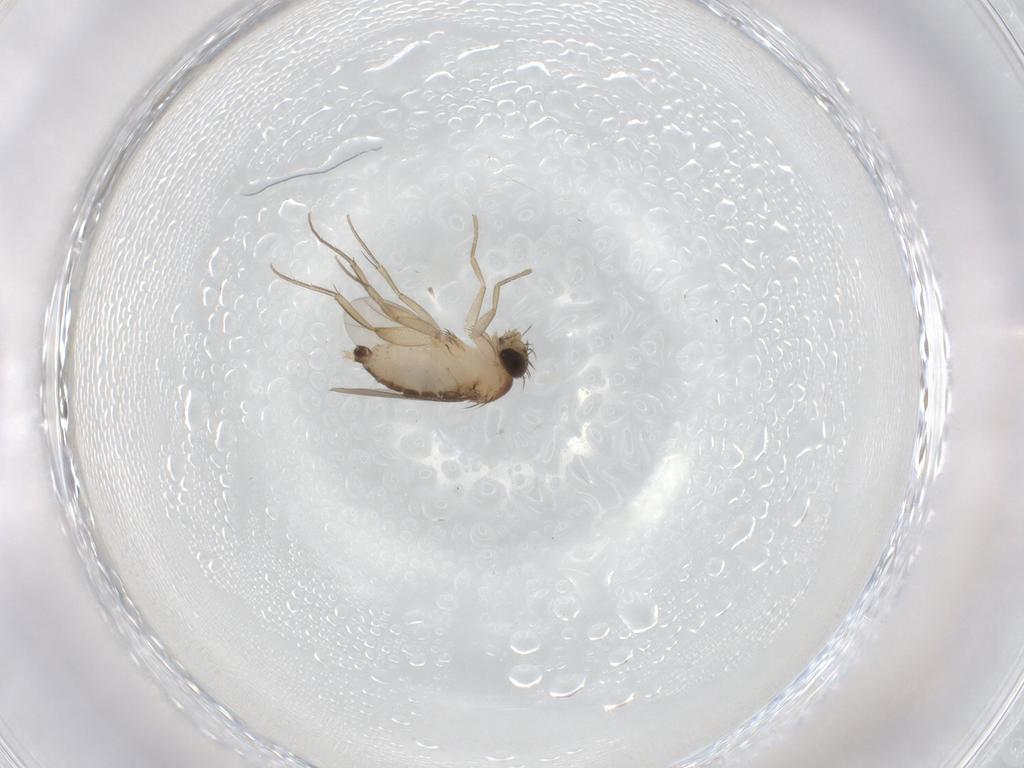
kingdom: Animalia
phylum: Arthropoda
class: Insecta
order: Diptera
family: Phoridae
